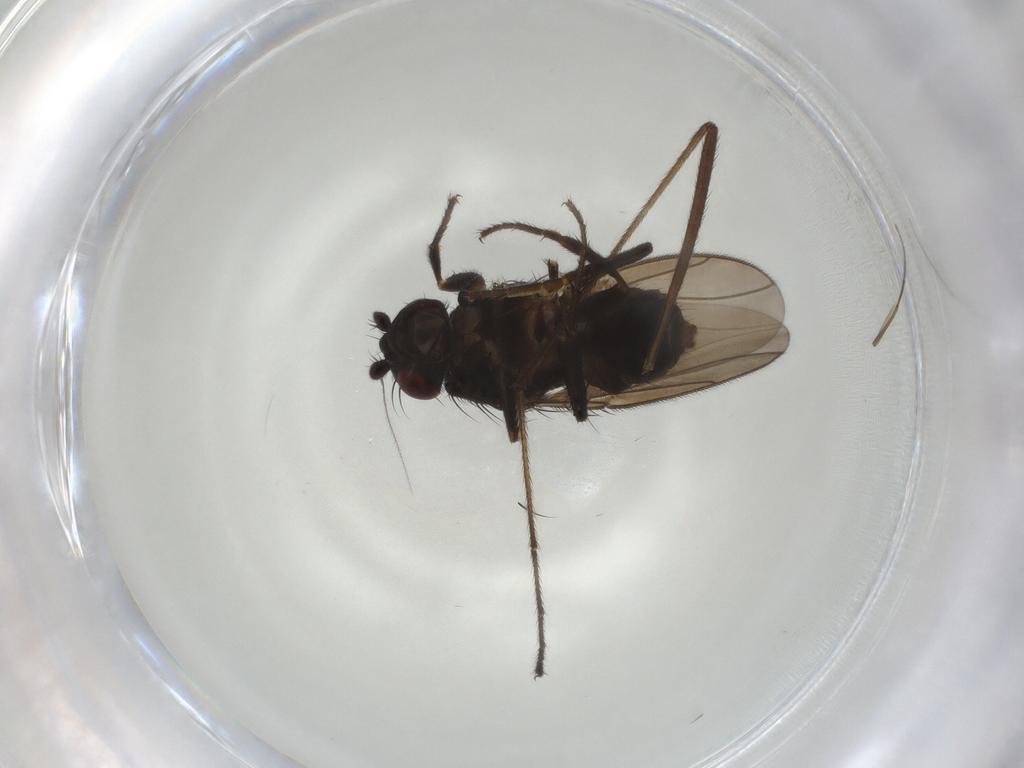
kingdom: Animalia
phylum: Arthropoda
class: Insecta
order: Diptera
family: Sphaeroceridae
